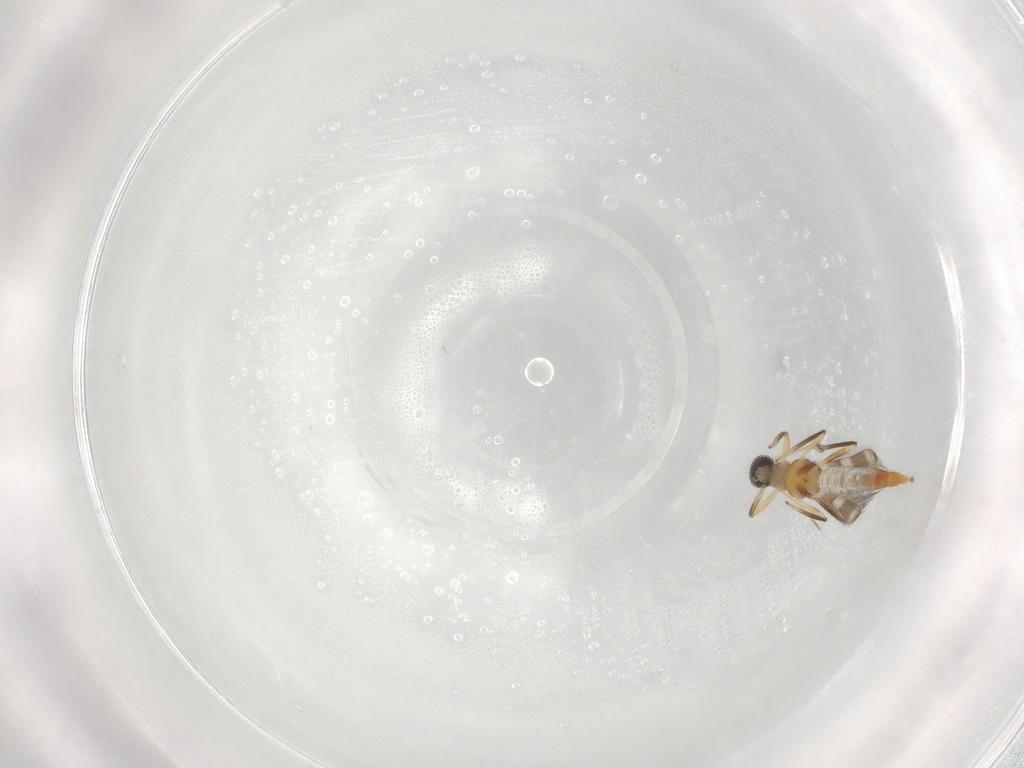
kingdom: Animalia
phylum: Arthropoda
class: Insecta
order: Thysanoptera
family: Aeolothripidae
